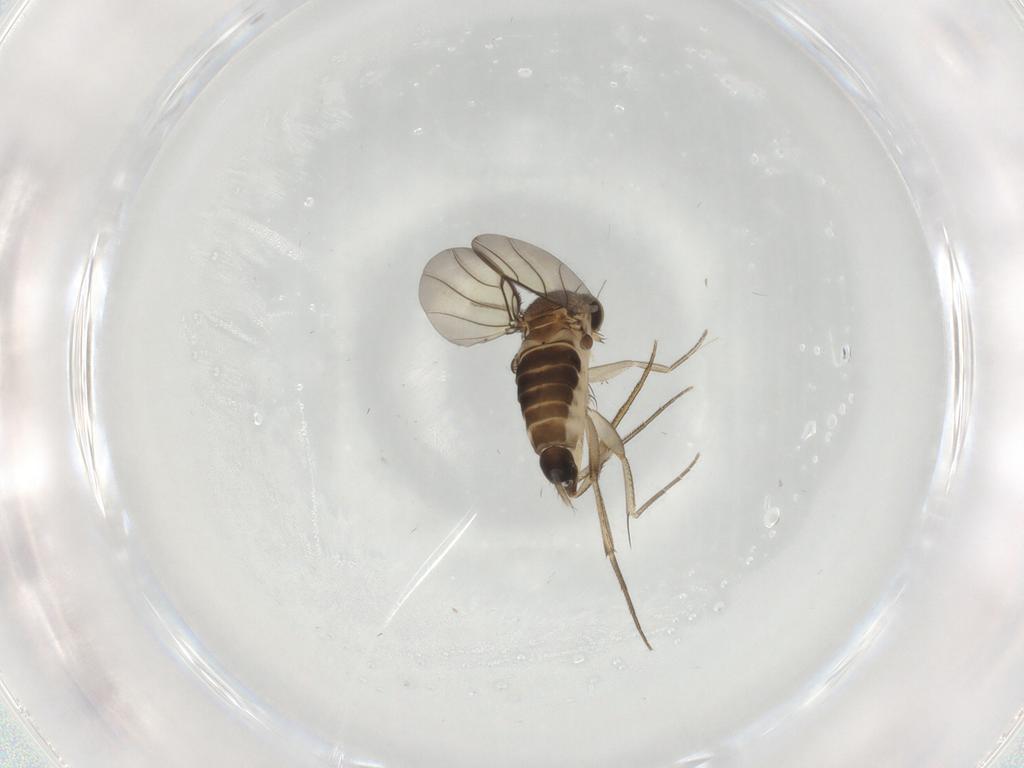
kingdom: Animalia
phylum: Arthropoda
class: Insecta
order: Diptera
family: Phoridae
